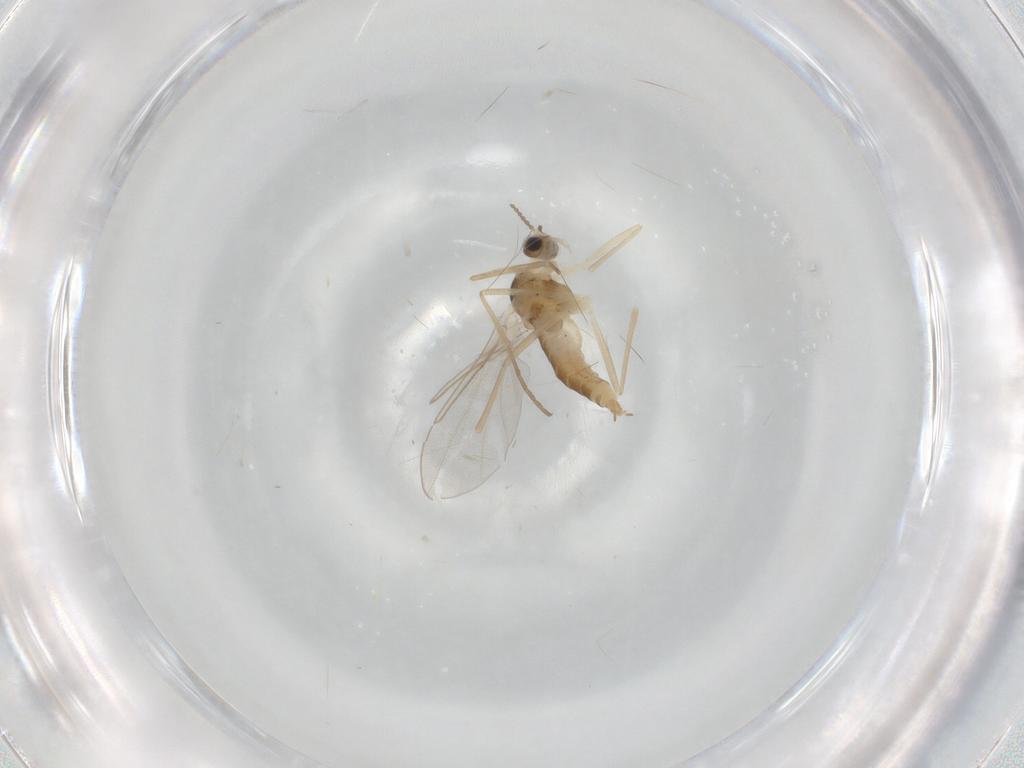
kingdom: Animalia
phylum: Arthropoda
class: Insecta
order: Diptera
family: Cecidomyiidae
